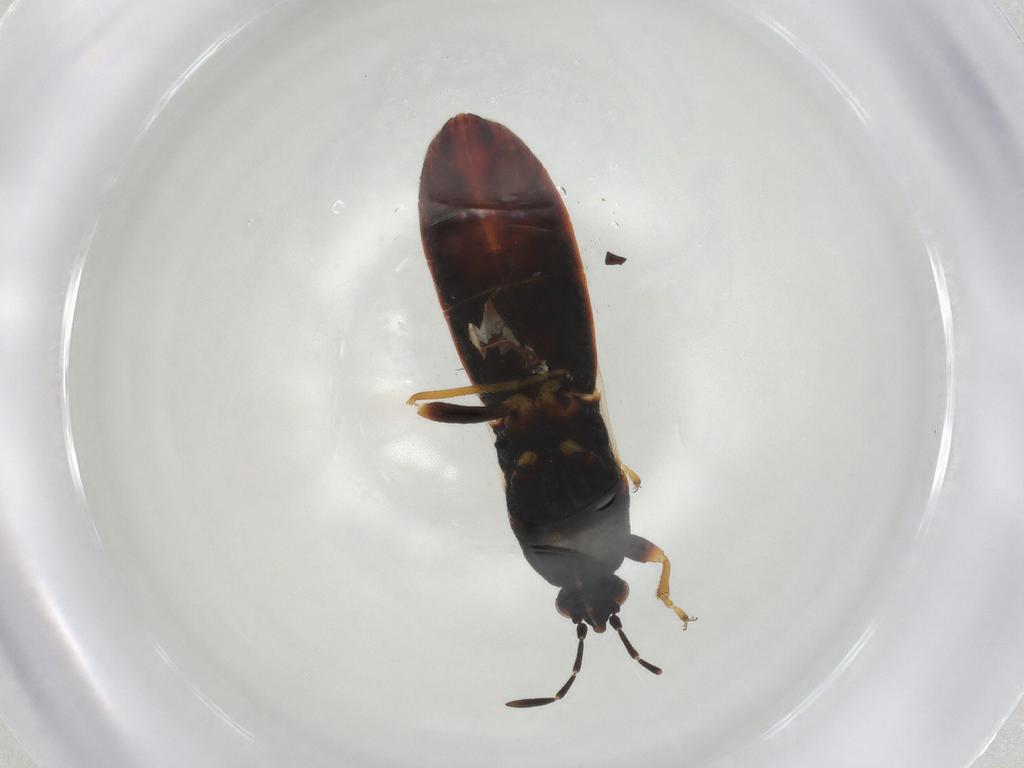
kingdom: Animalia
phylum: Arthropoda
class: Insecta
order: Hemiptera
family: Blissidae
